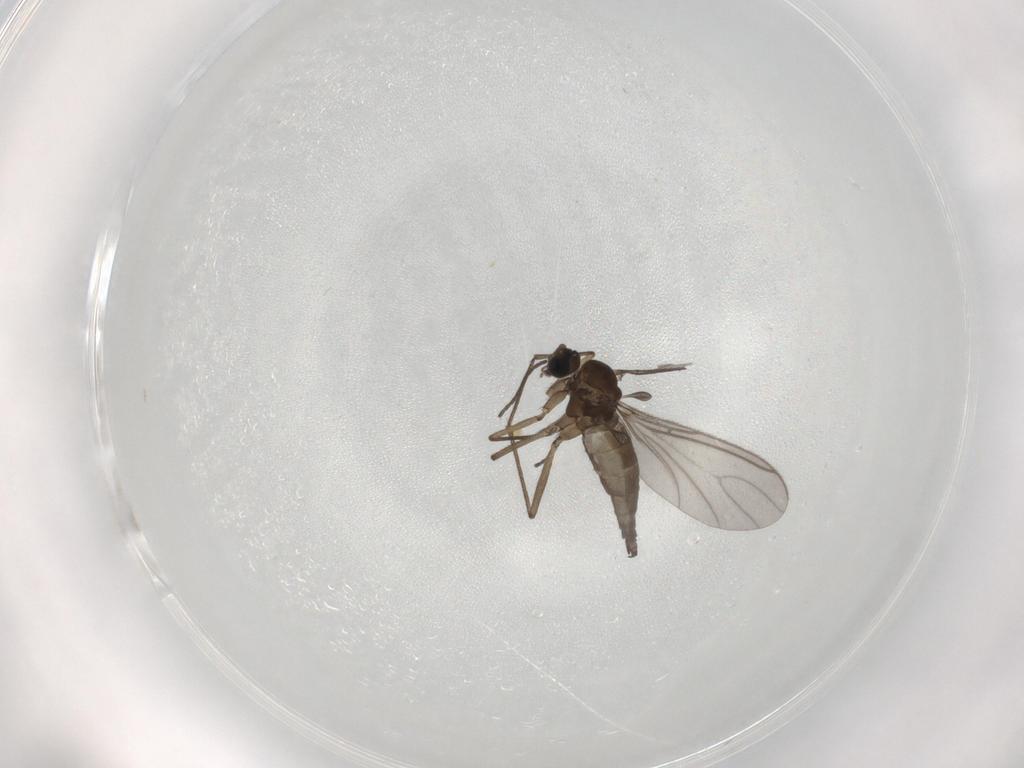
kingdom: Animalia
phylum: Arthropoda
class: Insecta
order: Diptera
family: Sciaridae
